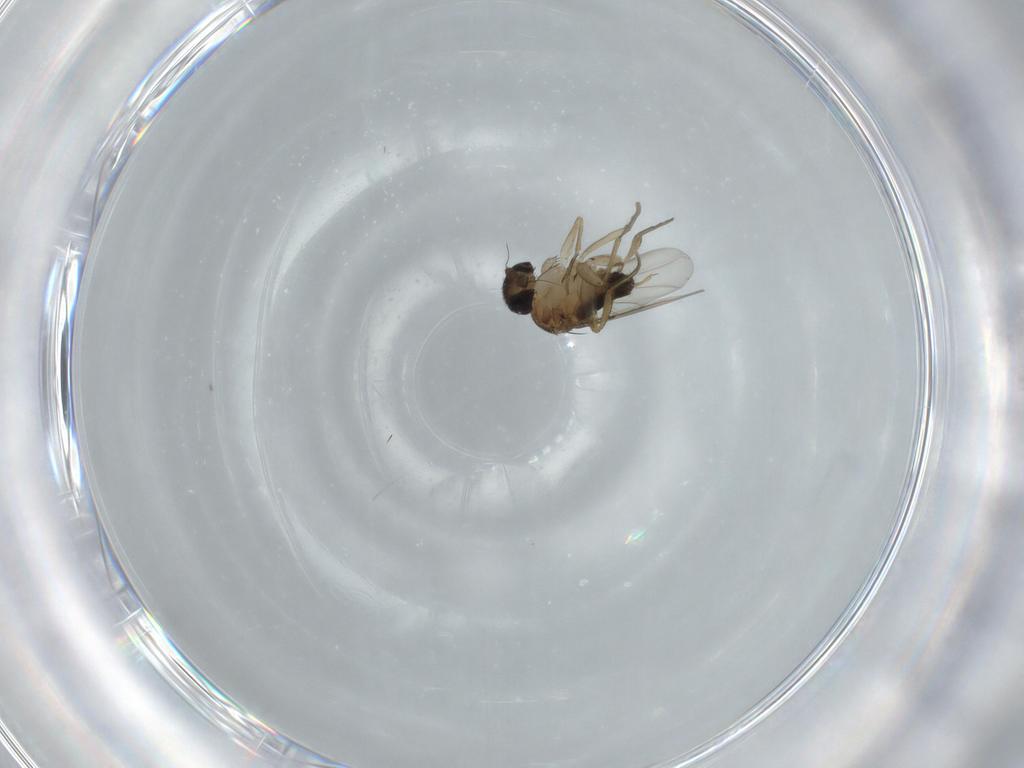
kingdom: Animalia
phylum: Arthropoda
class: Insecta
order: Diptera
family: Phoridae
